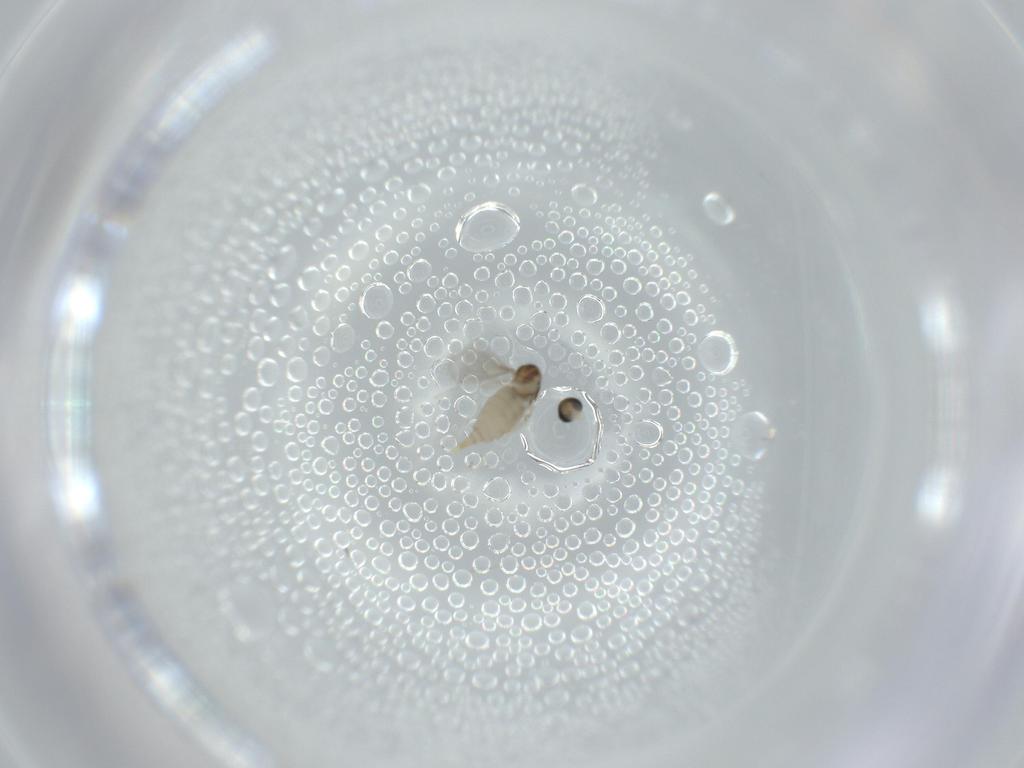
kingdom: Animalia
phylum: Arthropoda
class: Insecta
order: Diptera
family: Cecidomyiidae
